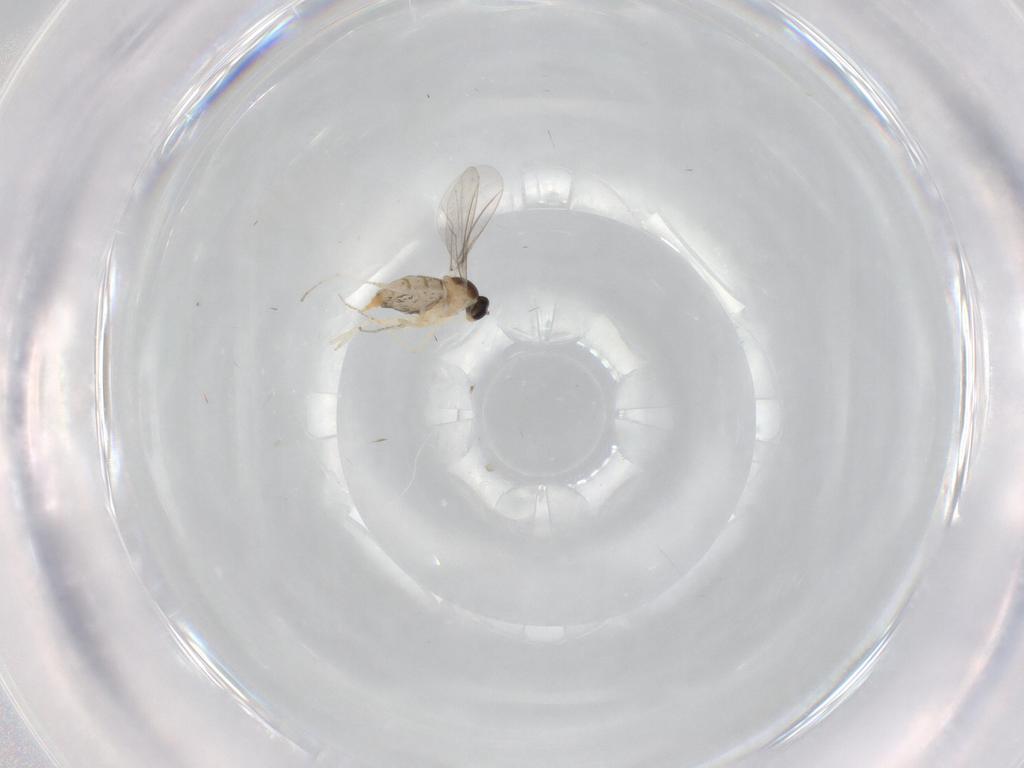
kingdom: Animalia
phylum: Arthropoda
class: Insecta
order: Diptera
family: Cecidomyiidae
